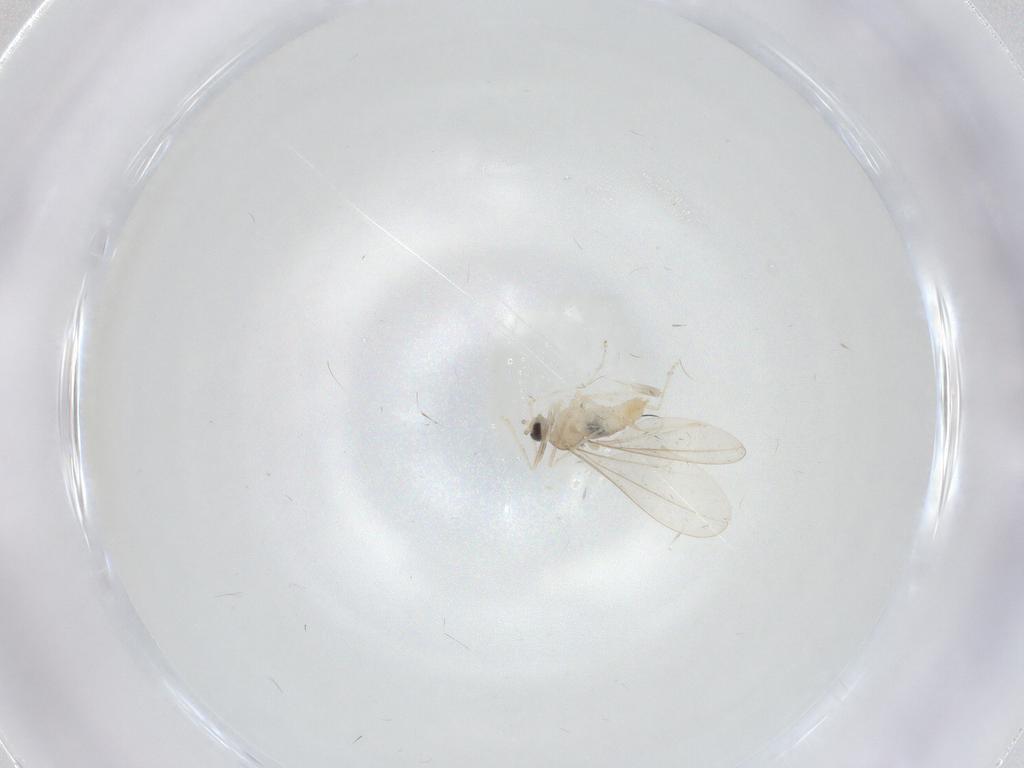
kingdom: Animalia
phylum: Arthropoda
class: Insecta
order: Diptera
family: Cecidomyiidae
